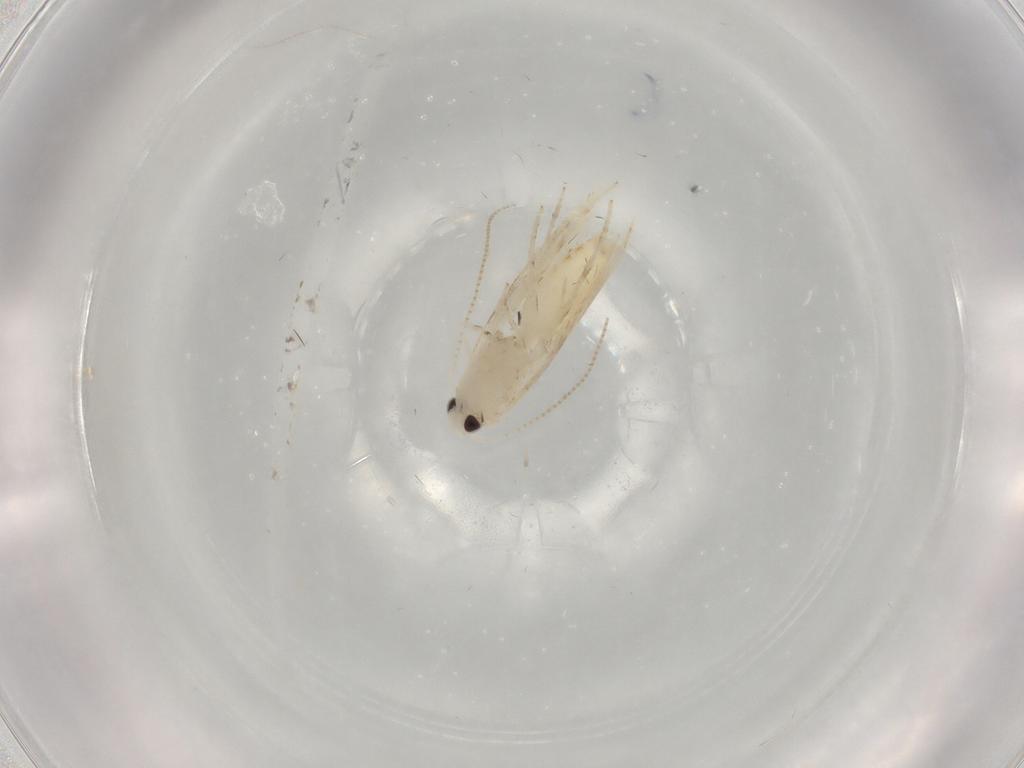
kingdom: Animalia
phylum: Arthropoda
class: Insecta
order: Lepidoptera
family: Gracillariidae
